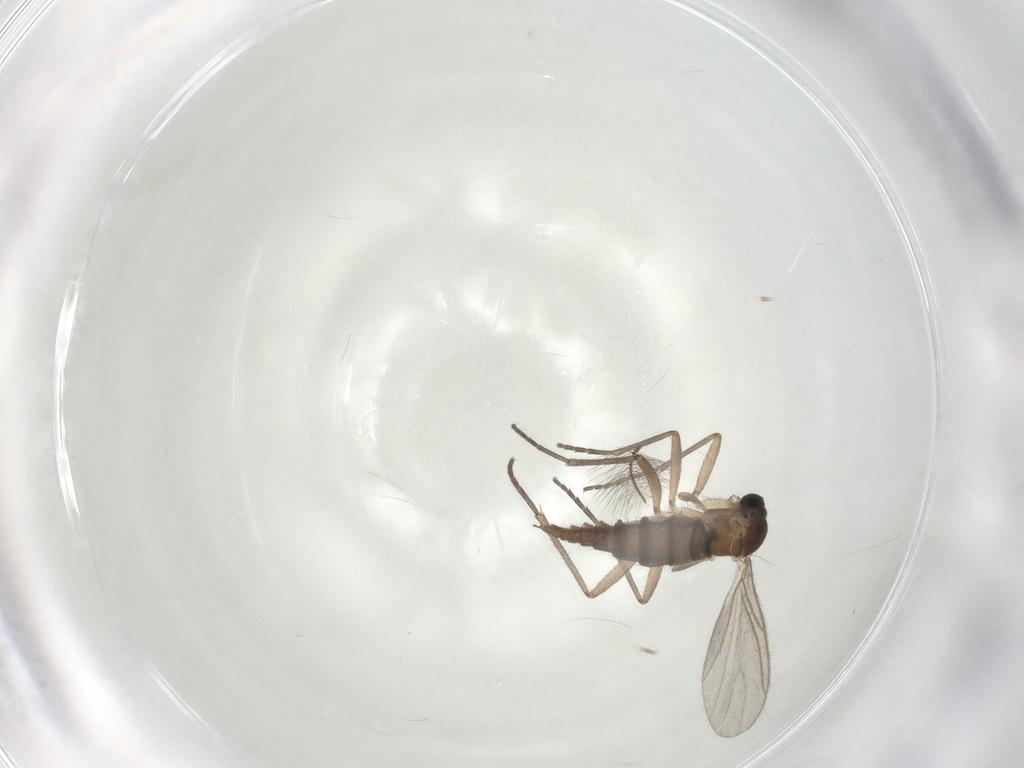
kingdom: Animalia
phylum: Arthropoda
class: Insecta
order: Diptera
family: Sciaridae
